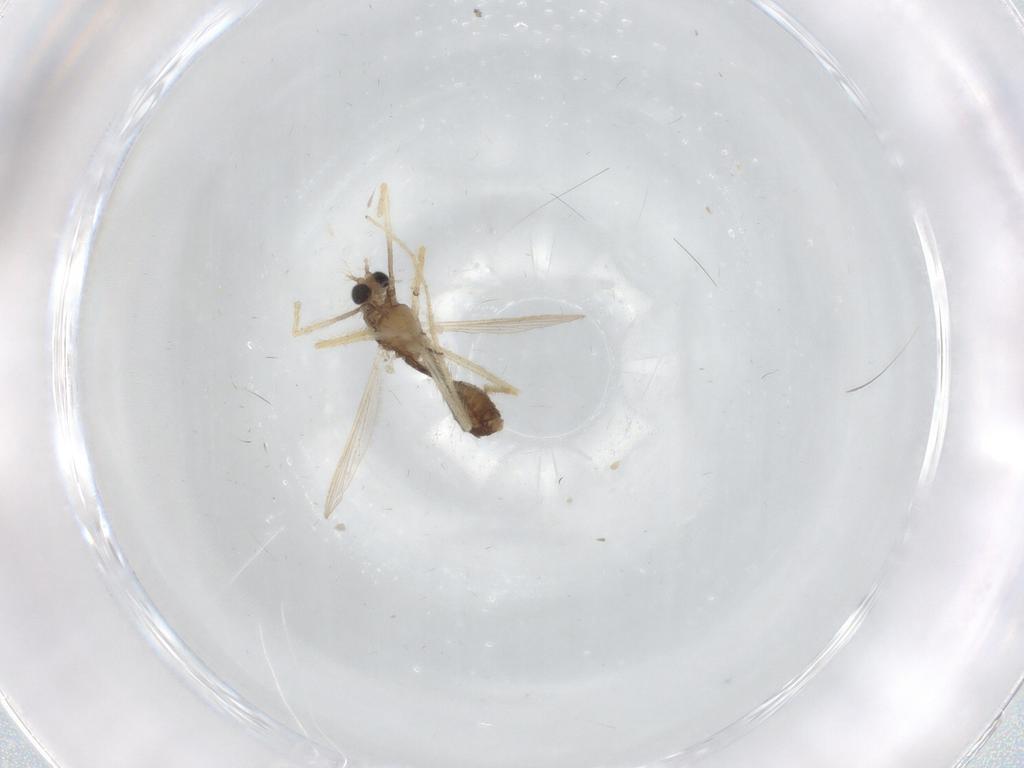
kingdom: Animalia
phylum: Arthropoda
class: Insecta
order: Diptera
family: Chironomidae
